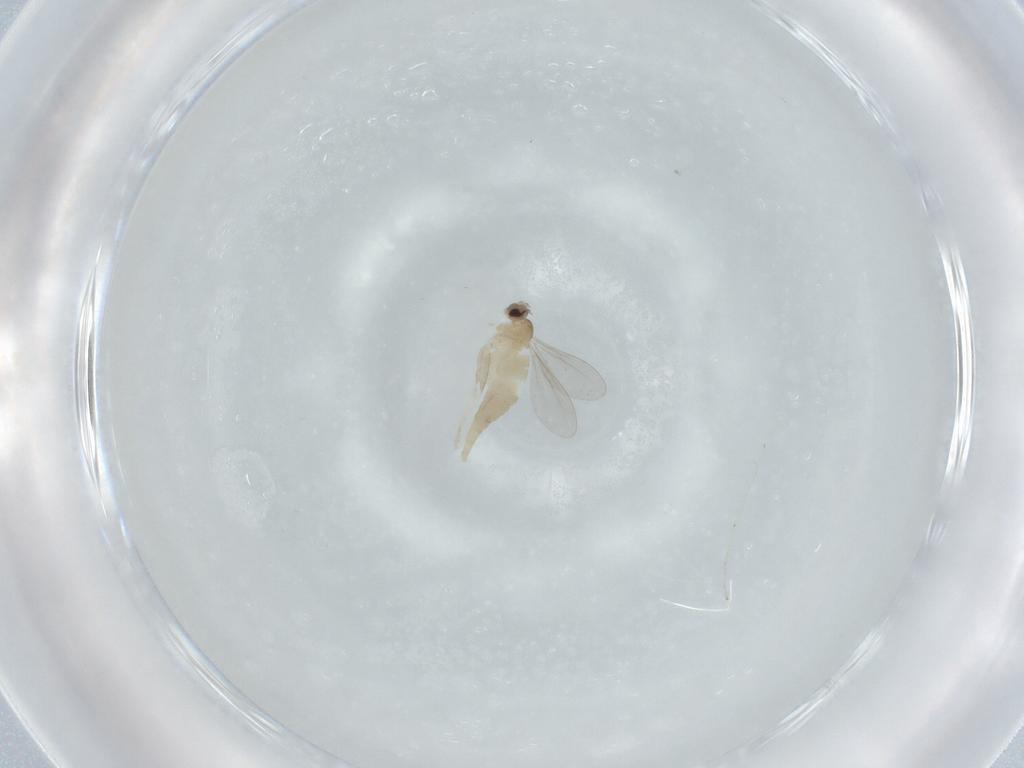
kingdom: Animalia
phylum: Arthropoda
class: Insecta
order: Diptera
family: Cecidomyiidae
